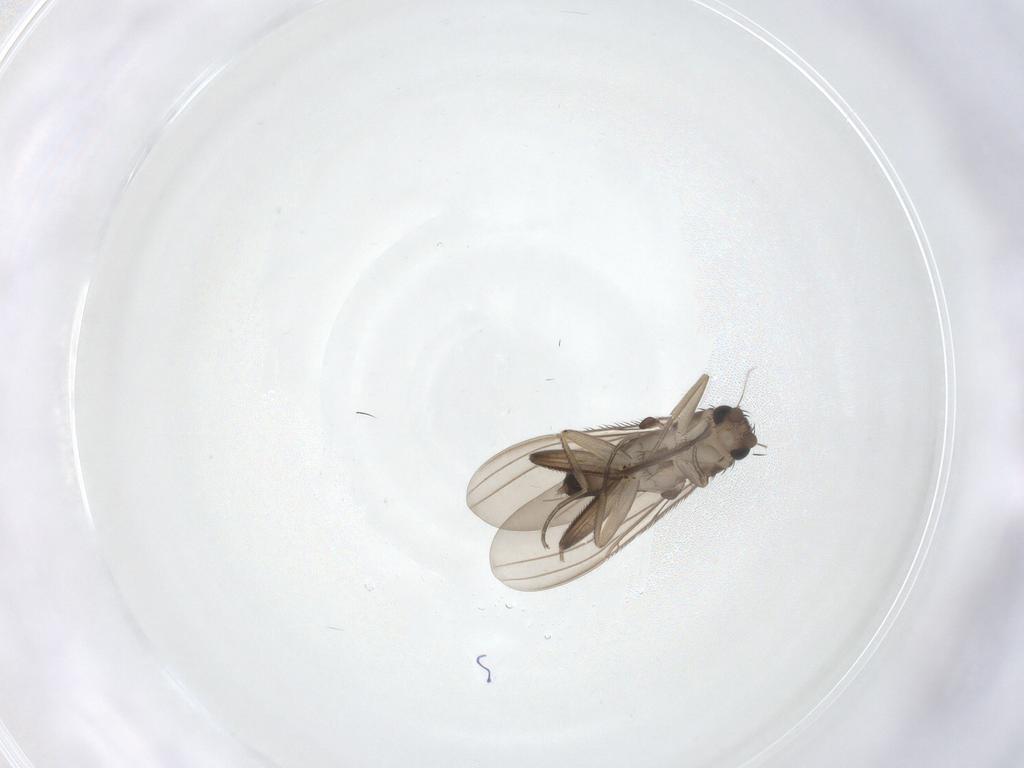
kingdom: Animalia
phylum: Arthropoda
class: Insecta
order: Diptera
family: Phoridae
